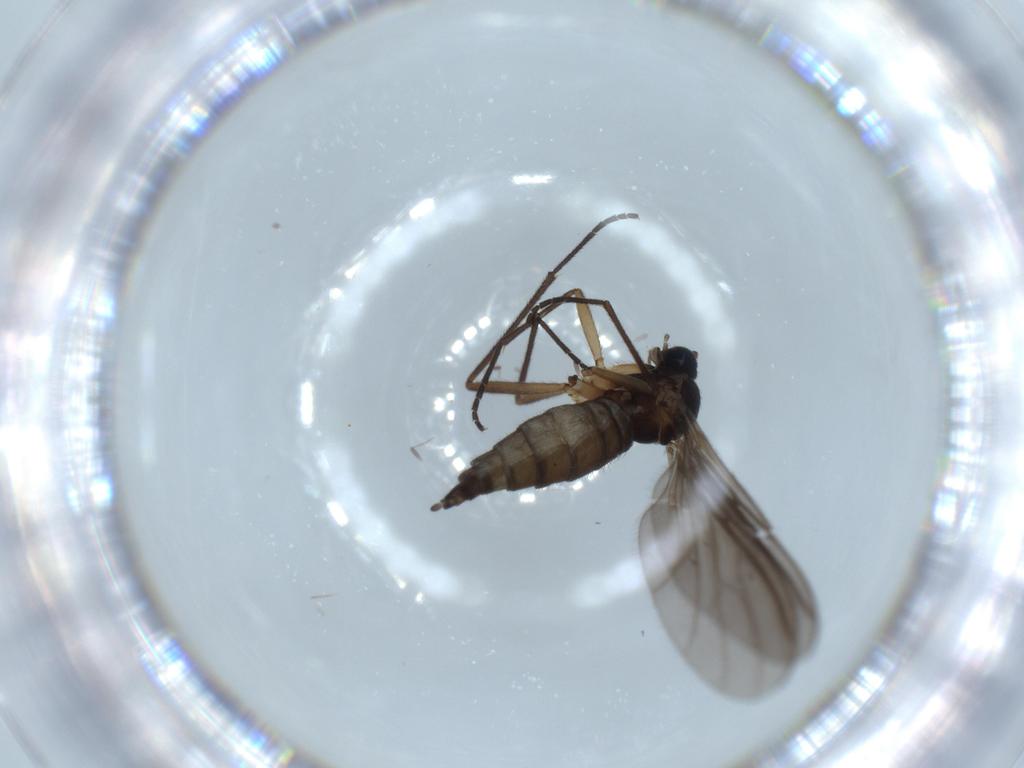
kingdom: Animalia
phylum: Arthropoda
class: Insecta
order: Diptera
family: Sciaridae
